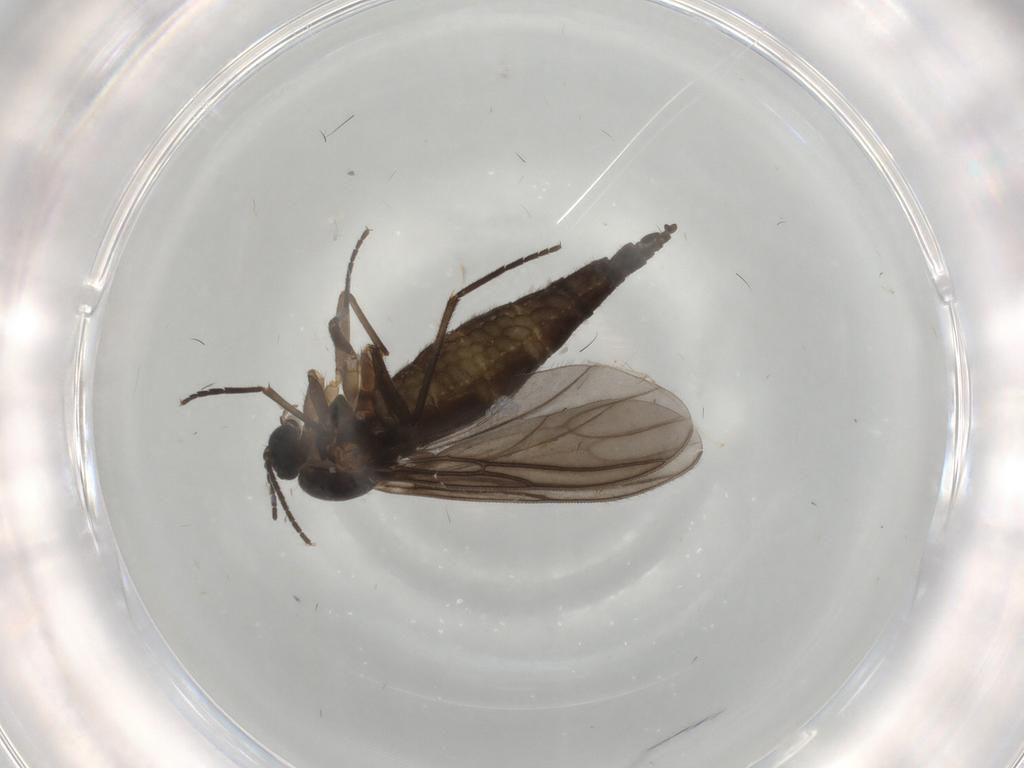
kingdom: Animalia
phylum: Arthropoda
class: Insecta
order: Diptera
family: Sciaridae
